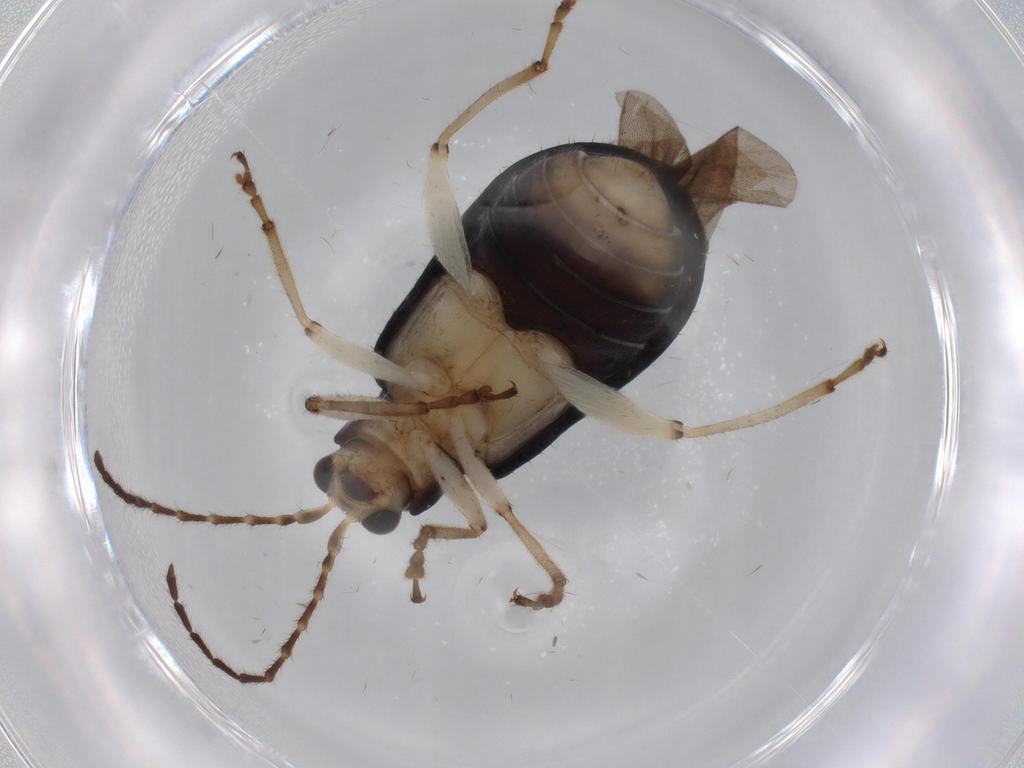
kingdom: Animalia
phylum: Arthropoda
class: Insecta
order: Coleoptera
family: Chrysomelidae
